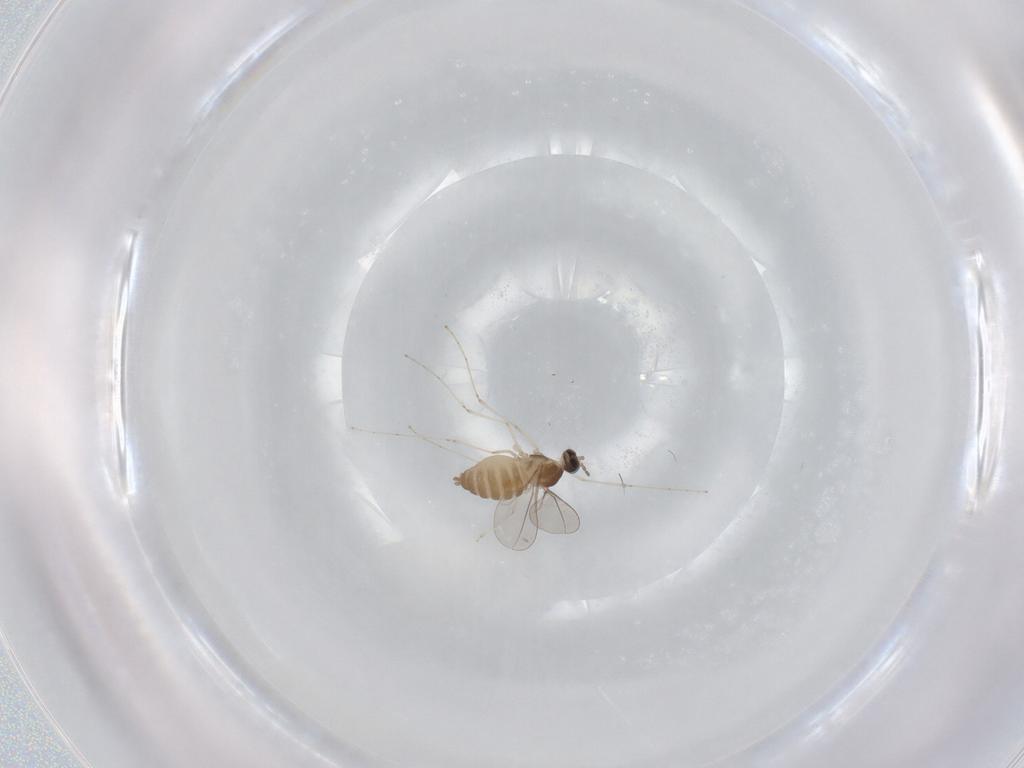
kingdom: Animalia
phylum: Arthropoda
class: Insecta
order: Diptera
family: Cecidomyiidae
